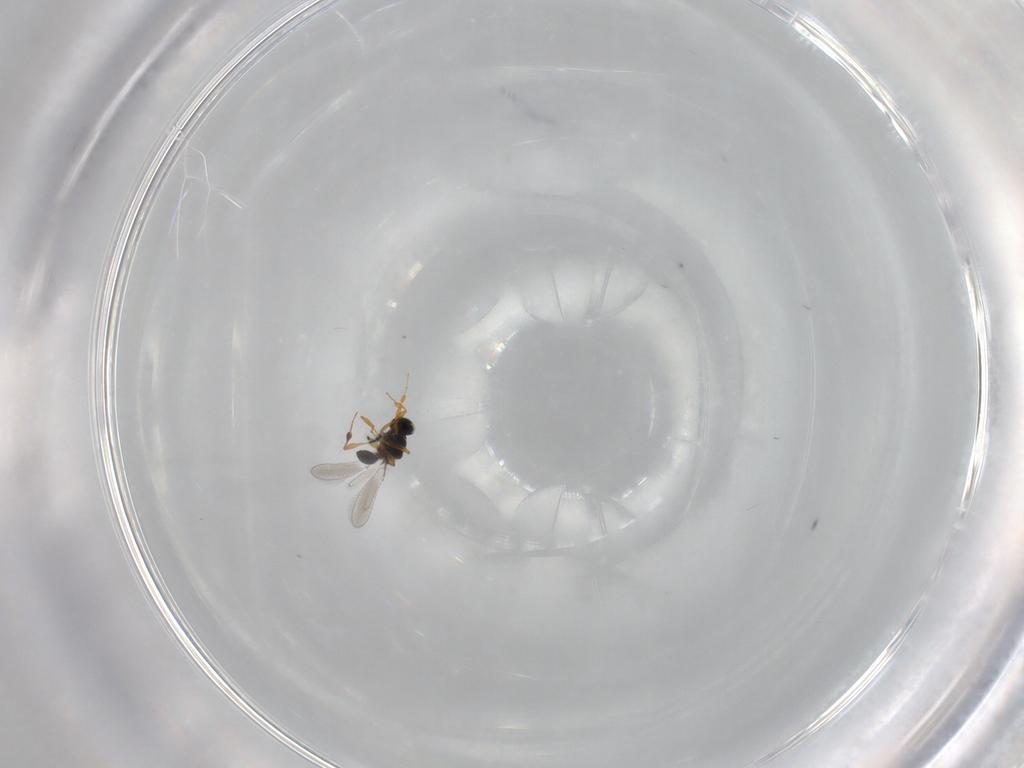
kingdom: Animalia
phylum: Arthropoda
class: Insecta
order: Hymenoptera
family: Platygastridae
